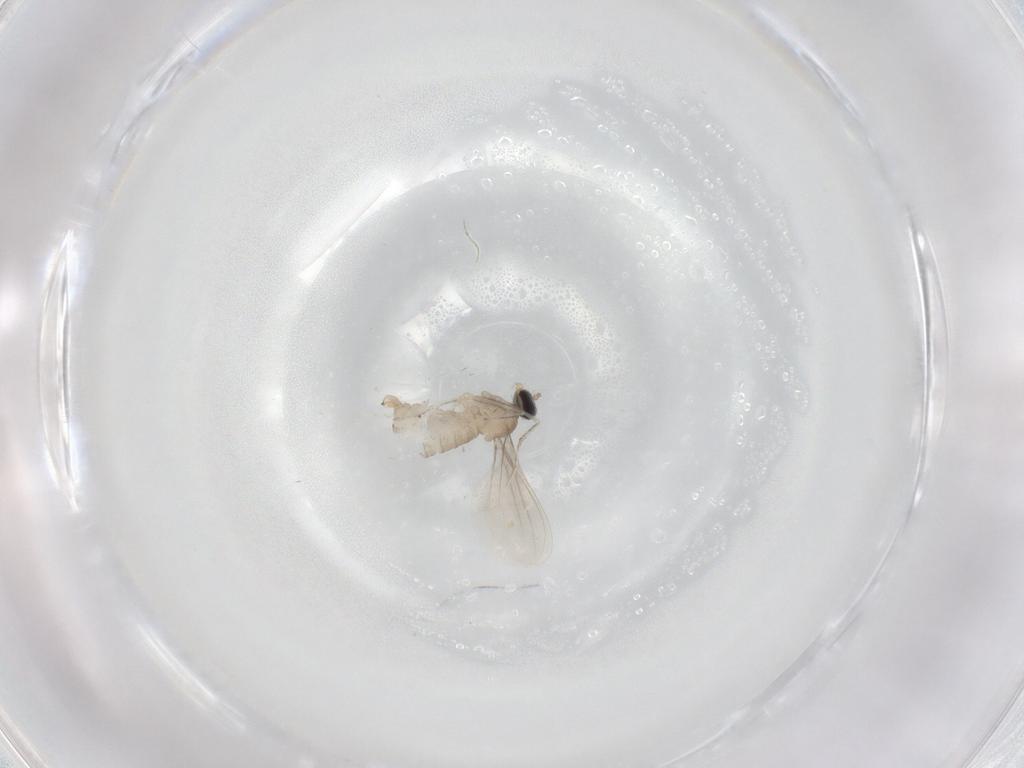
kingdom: Animalia
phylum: Arthropoda
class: Insecta
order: Diptera
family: Cecidomyiidae
